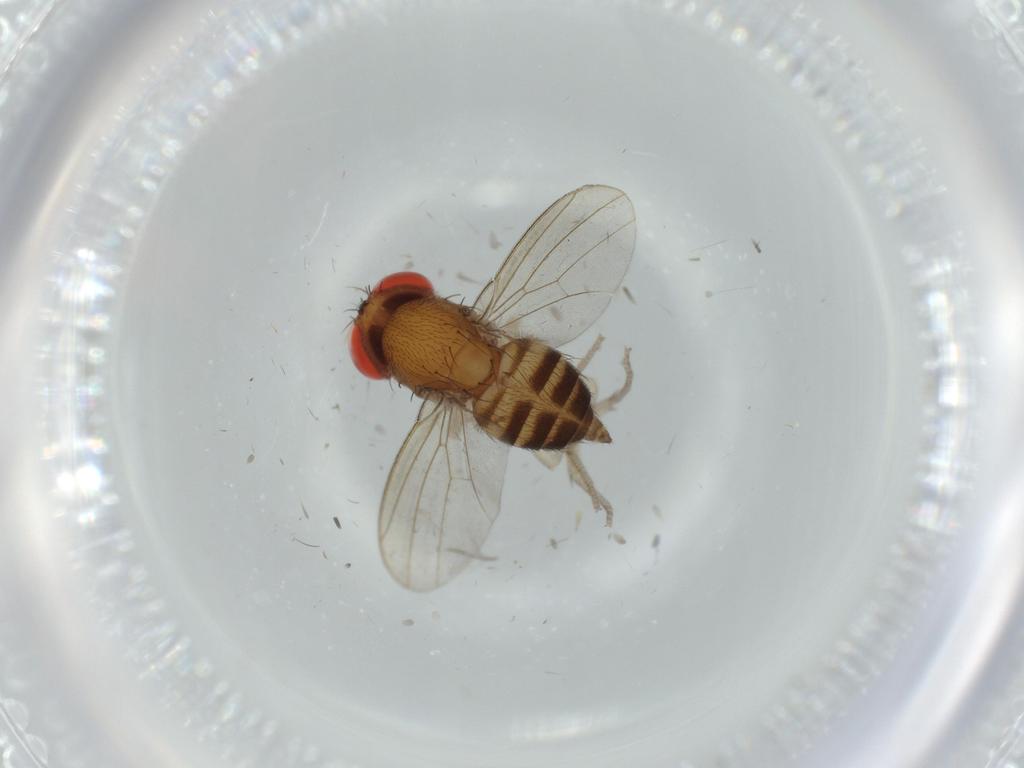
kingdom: Animalia
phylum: Arthropoda
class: Insecta
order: Diptera
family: Drosophilidae
